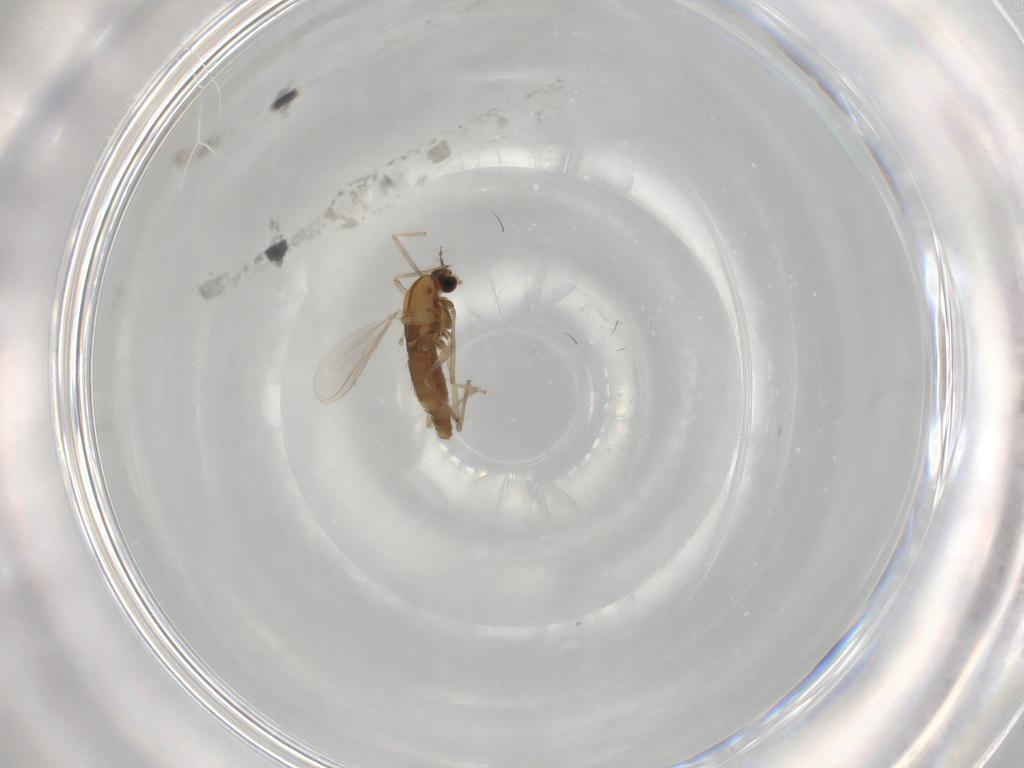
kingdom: Animalia
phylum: Arthropoda
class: Insecta
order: Diptera
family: Chironomidae
